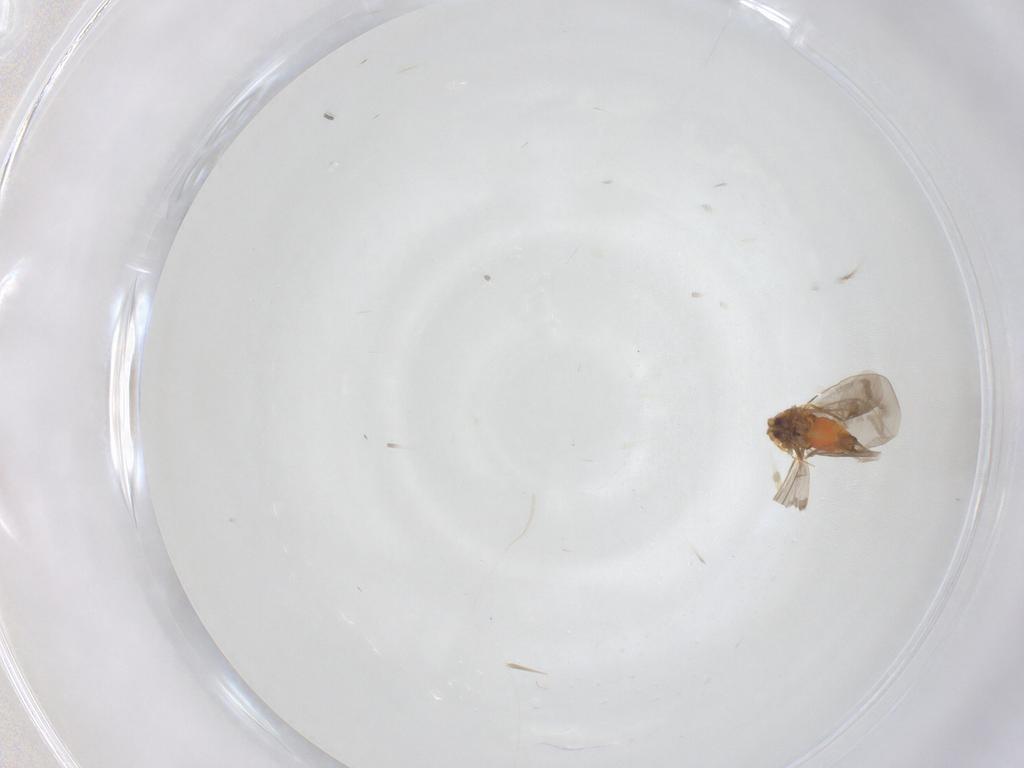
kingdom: Animalia
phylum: Arthropoda
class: Insecta
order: Hemiptera
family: Aleyrodidae
